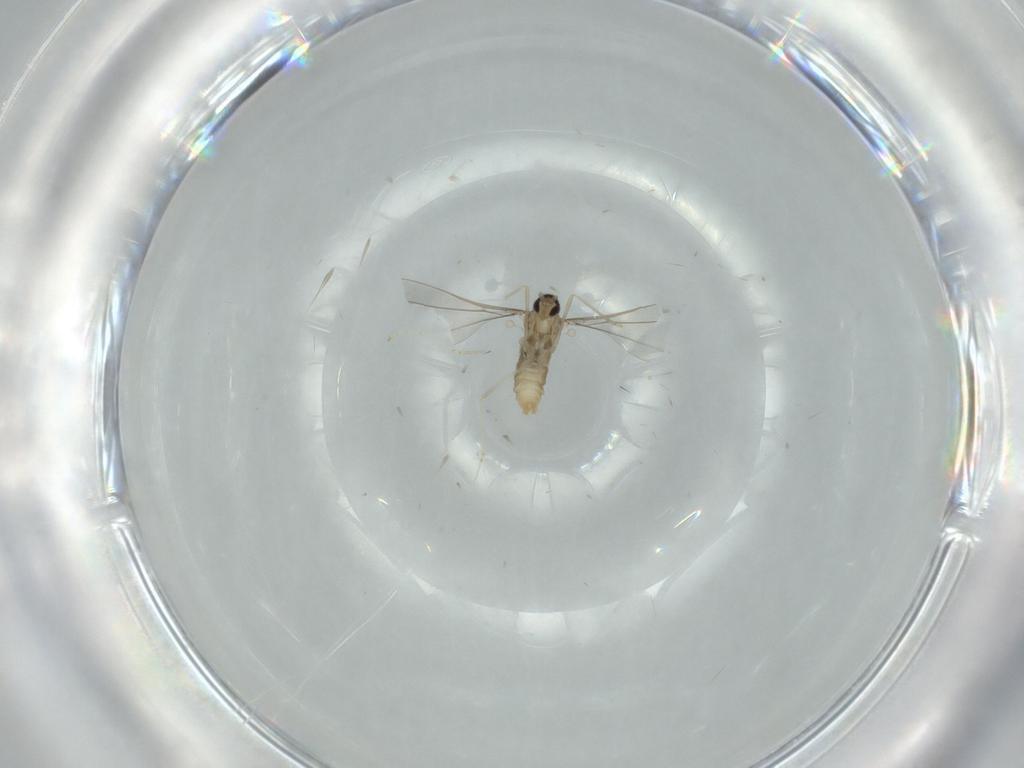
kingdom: Animalia
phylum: Arthropoda
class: Insecta
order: Diptera
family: Cecidomyiidae
